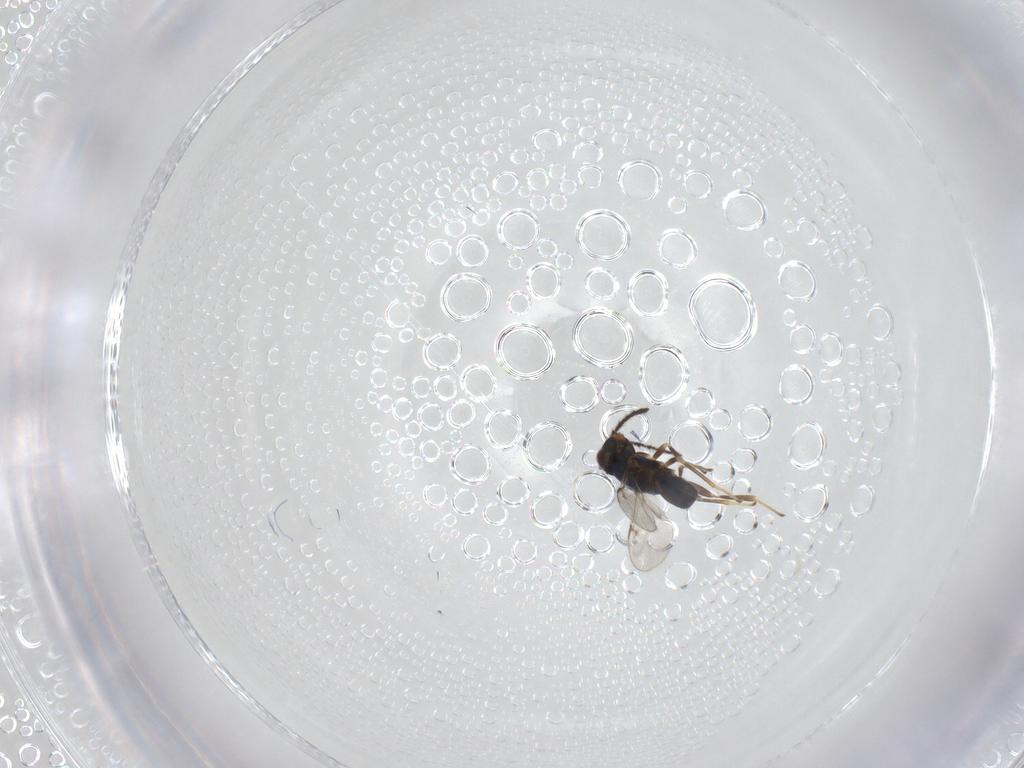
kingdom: Animalia
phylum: Arthropoda
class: Insecta
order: Hymenoptera
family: Encyrtidae
